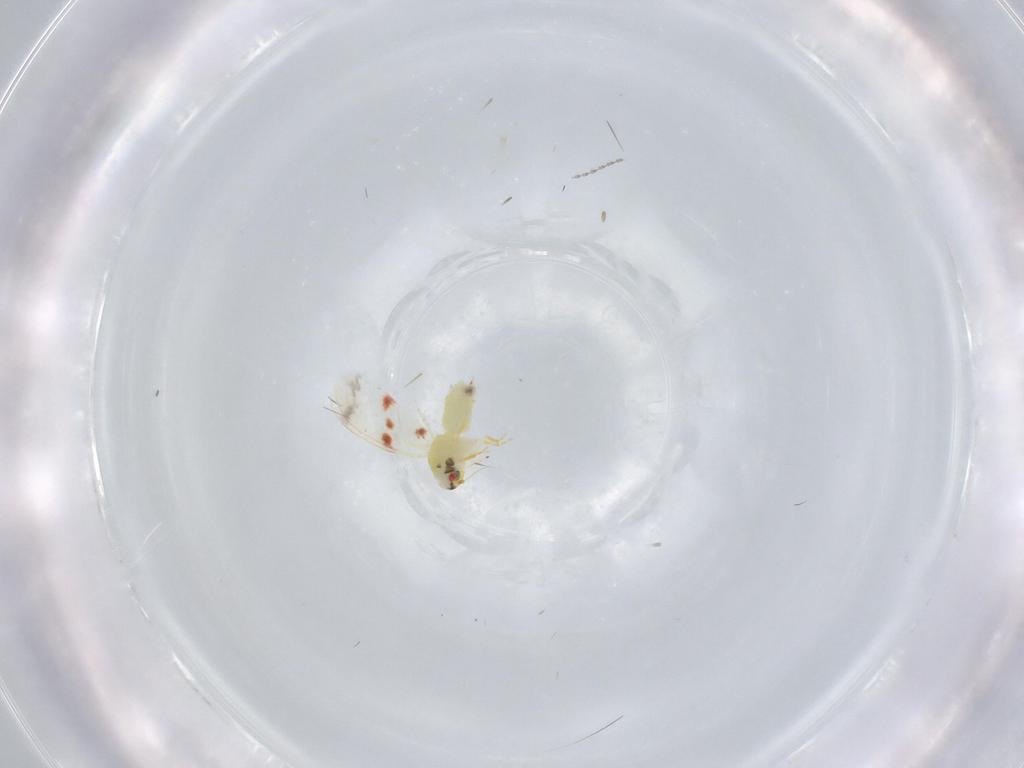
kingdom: Animalia
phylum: Arthropoda
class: Insecta
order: Hemiptera
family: Aleyrodidae
